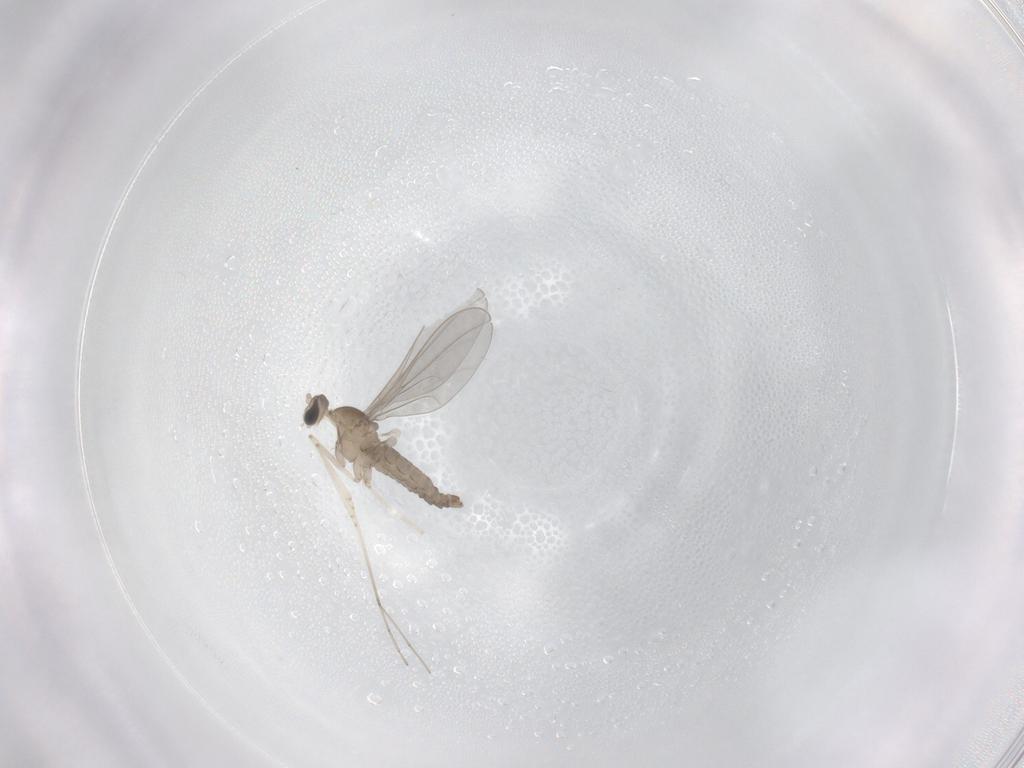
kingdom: Animalia
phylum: Arthropoda
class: Insecta
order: Diptera
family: Cecidomyiidae
